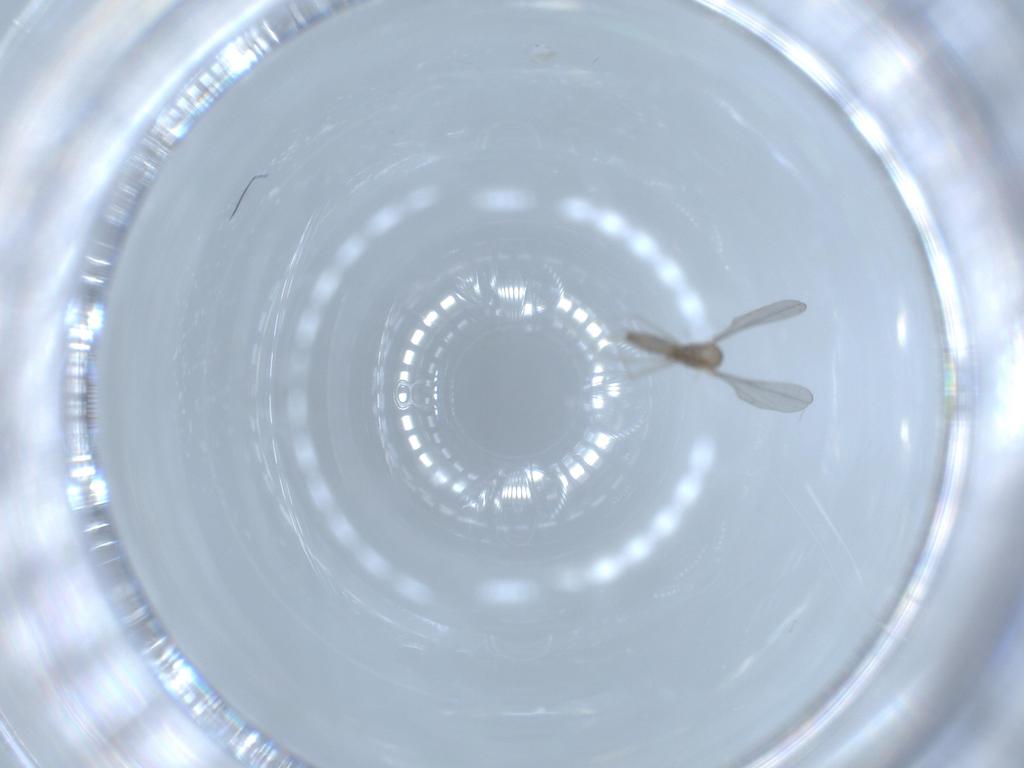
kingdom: Animalia
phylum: Arthropoda
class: Insecta
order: Diptera
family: Cecidomyiidae
